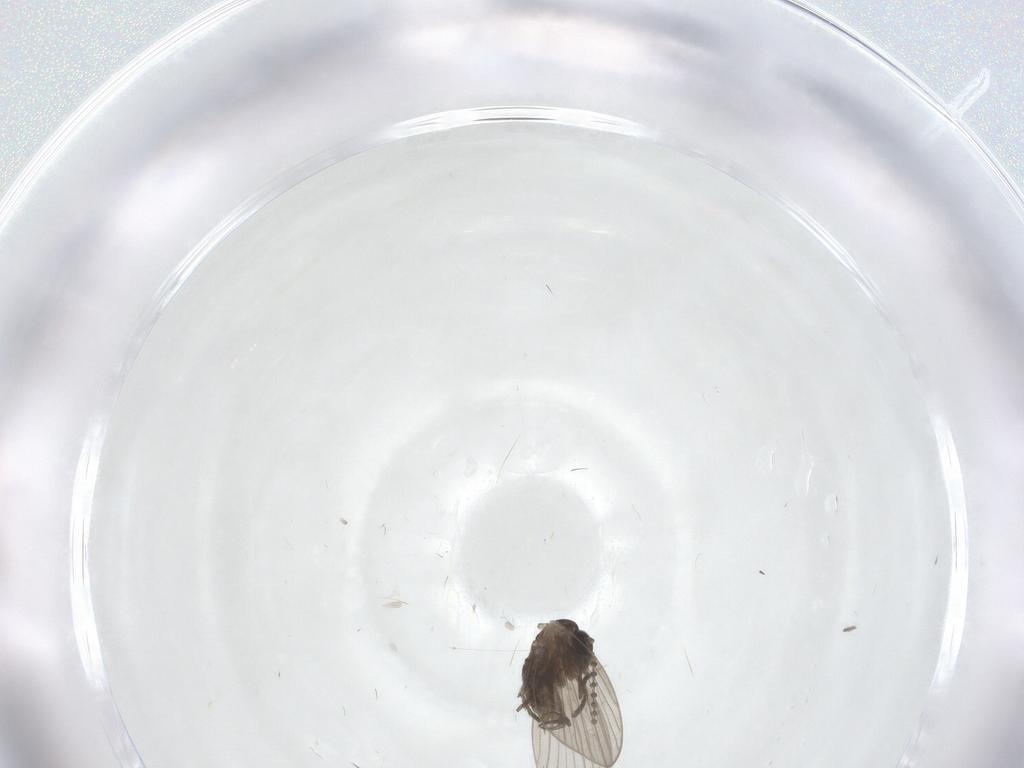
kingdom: Animalia
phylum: Arthropoda
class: Insecta
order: Diptera
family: Psychodidae
